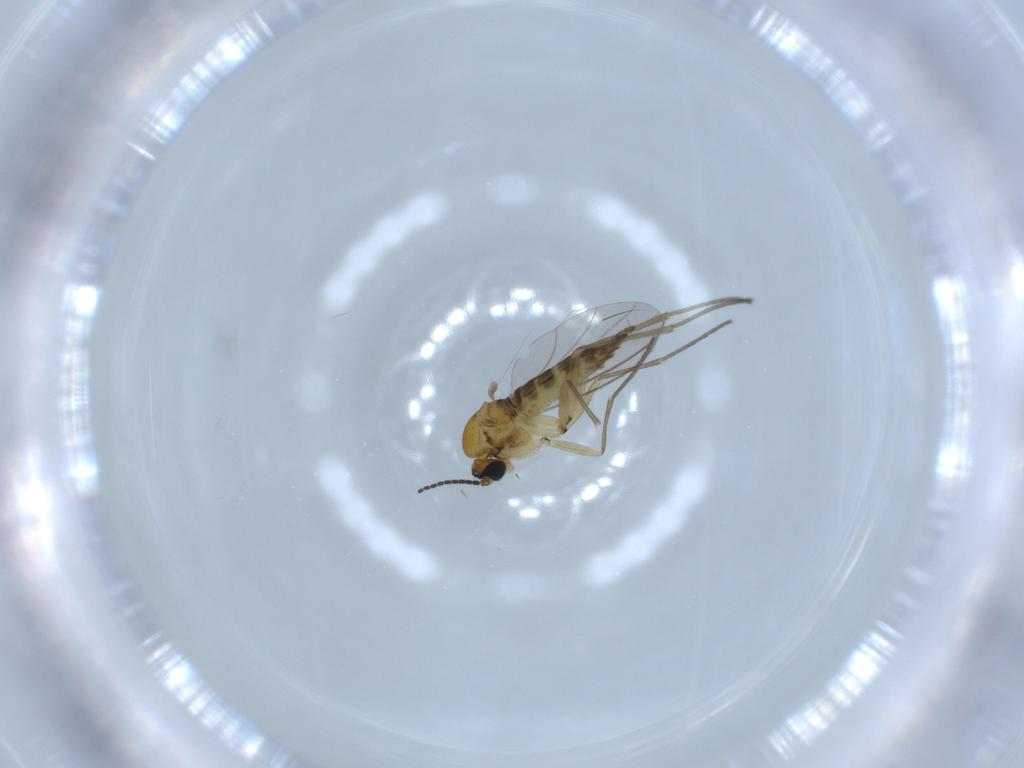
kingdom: Animalia
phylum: Arthropoda
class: Insecta
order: Diptera
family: Sciaridae
